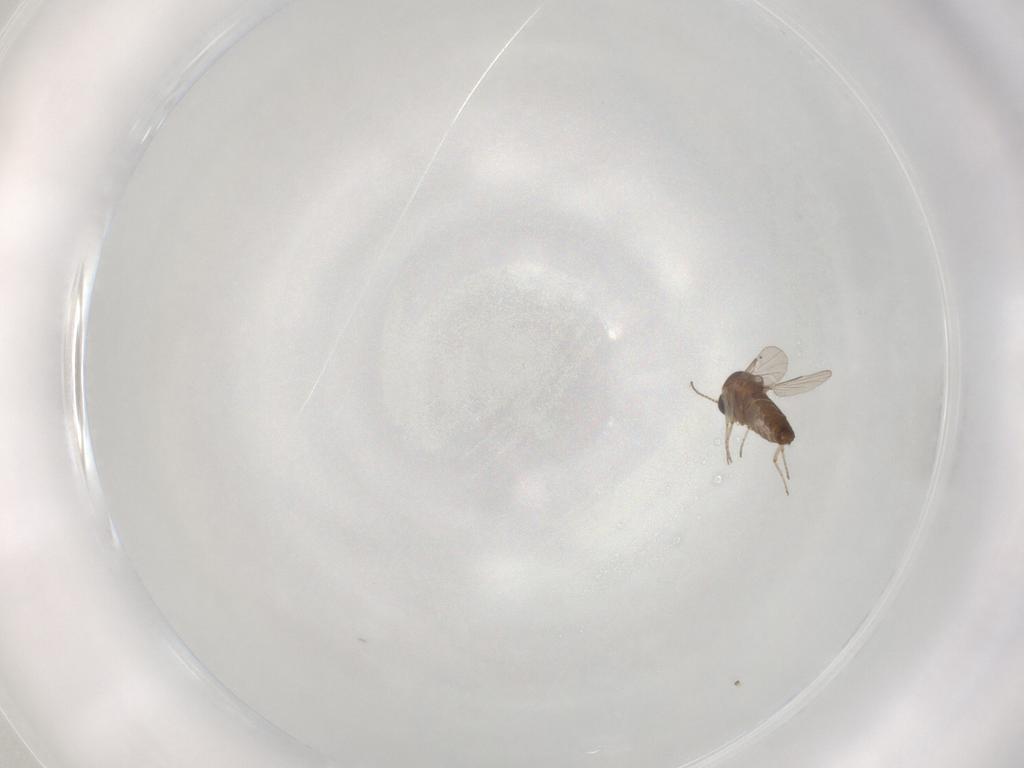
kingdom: Animalia
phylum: Arthropoda
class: Insecta
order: Diptera
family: Ceratopogonidae
